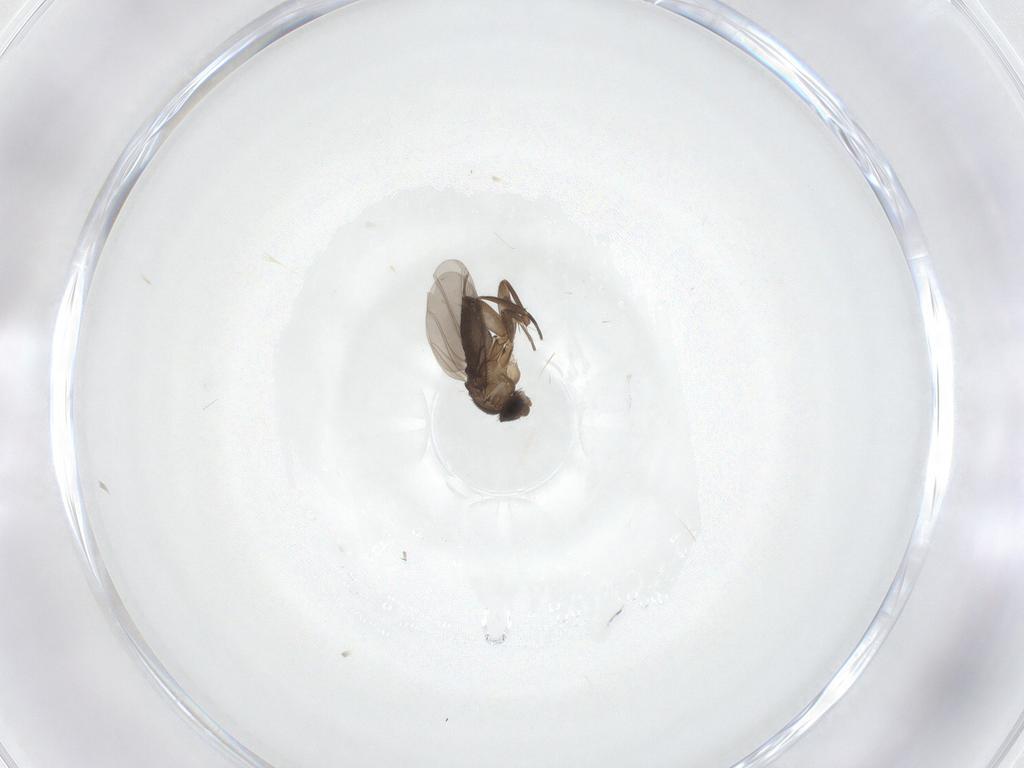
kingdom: Animalia
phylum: Arthropoda
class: Insecta
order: Diptera
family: Phoridae
